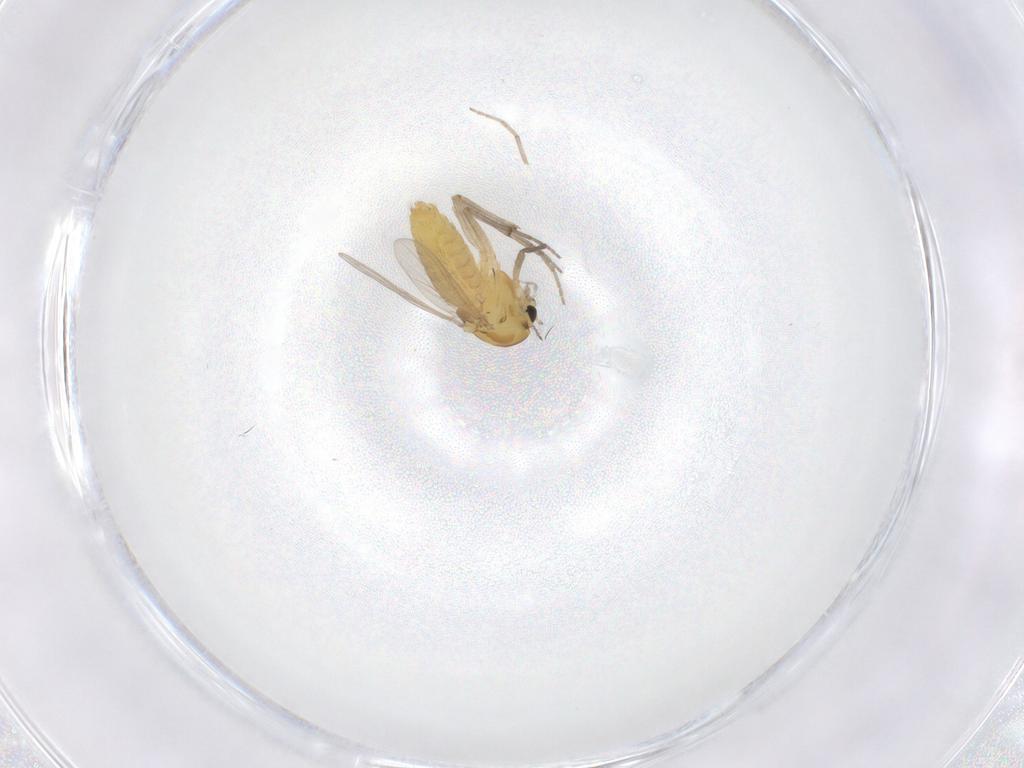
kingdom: Animalia
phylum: Arthropoda
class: Insecta
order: Diptera
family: Chironomidae
